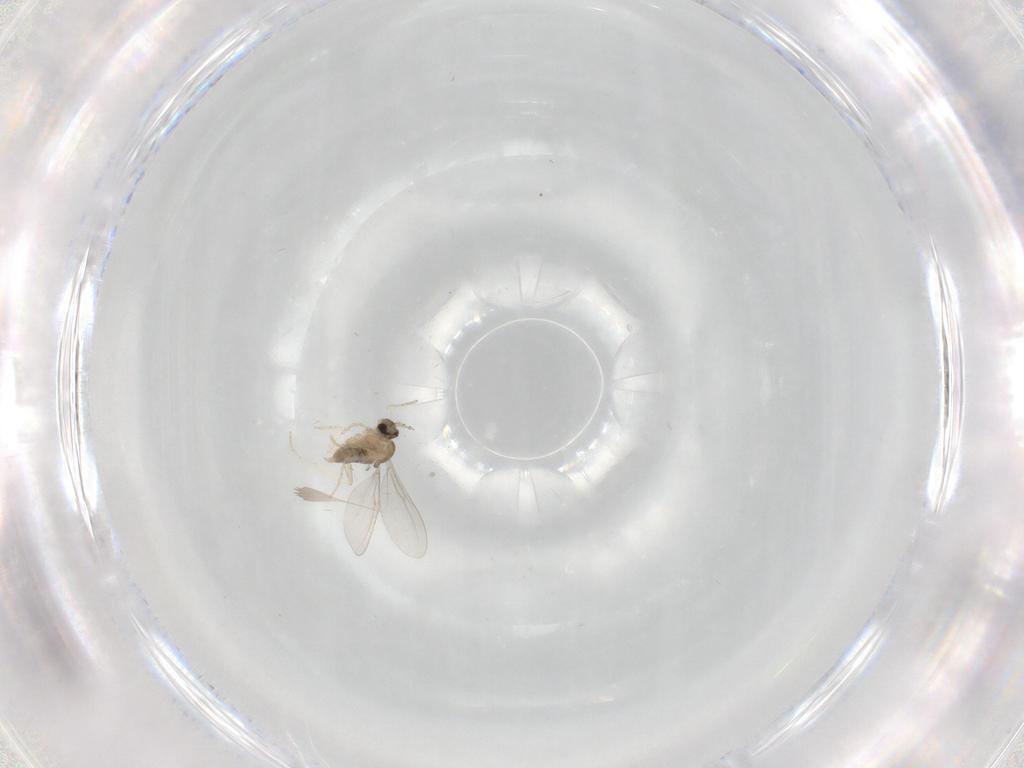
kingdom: Animalia
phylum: Arthropoda
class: Insecta
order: Diptera
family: Cecidomyiidae
